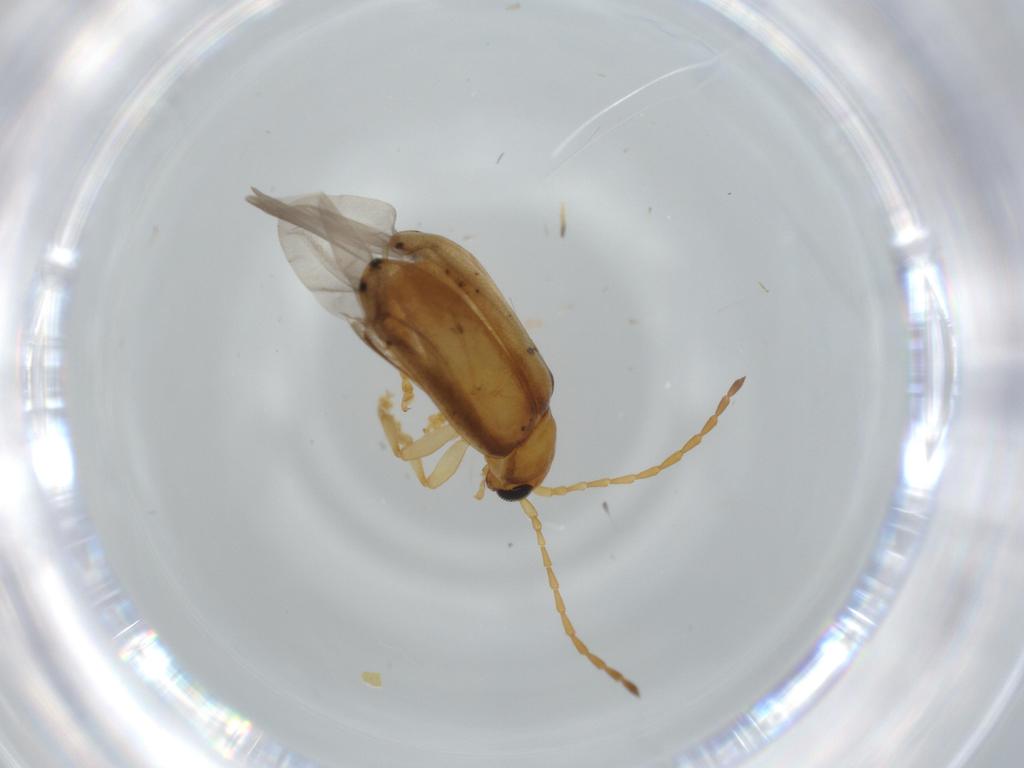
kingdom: Animalia
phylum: Arthropoda
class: Insecta
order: Coleoptera
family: Chrysomelidae
